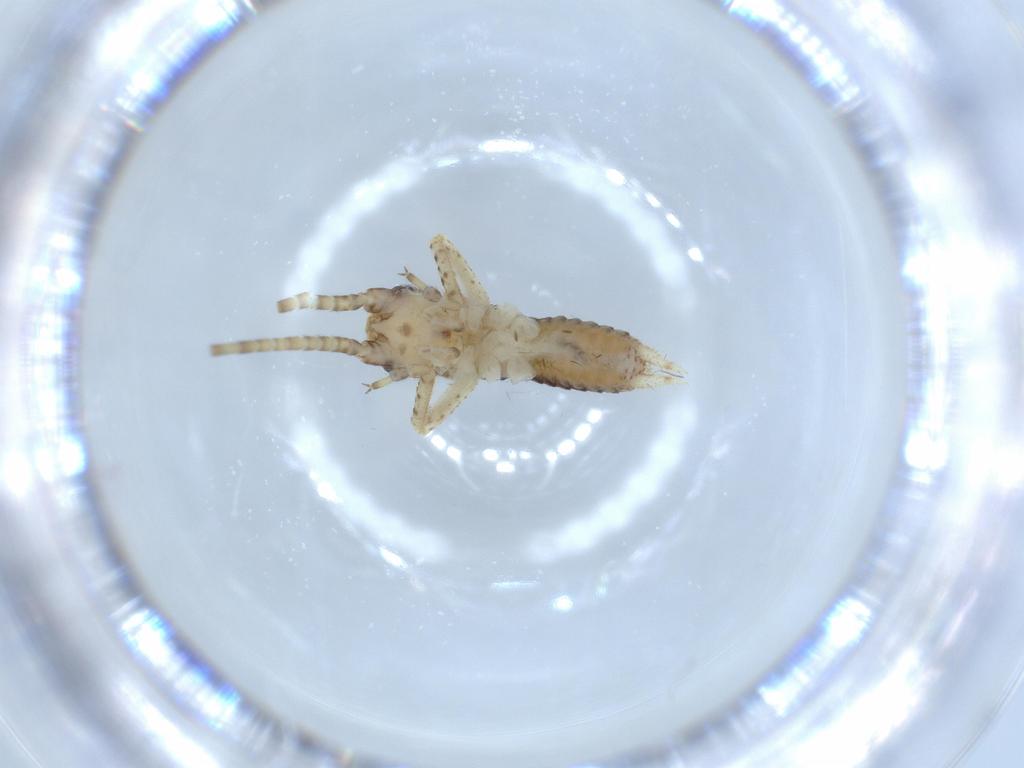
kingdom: Animalia
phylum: Arthropoda
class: Insecta
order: Orthoptera
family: Gryllidae
